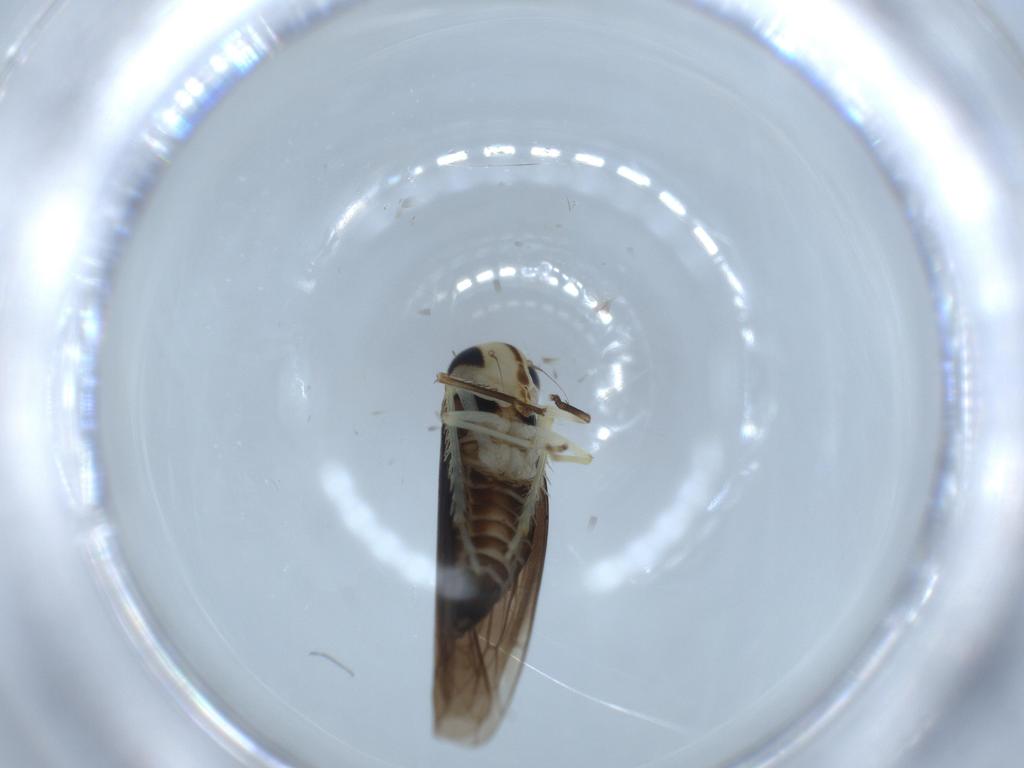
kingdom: Animalia
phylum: Arthropoda
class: Insecta
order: Hemiptera
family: Cicadellidae
